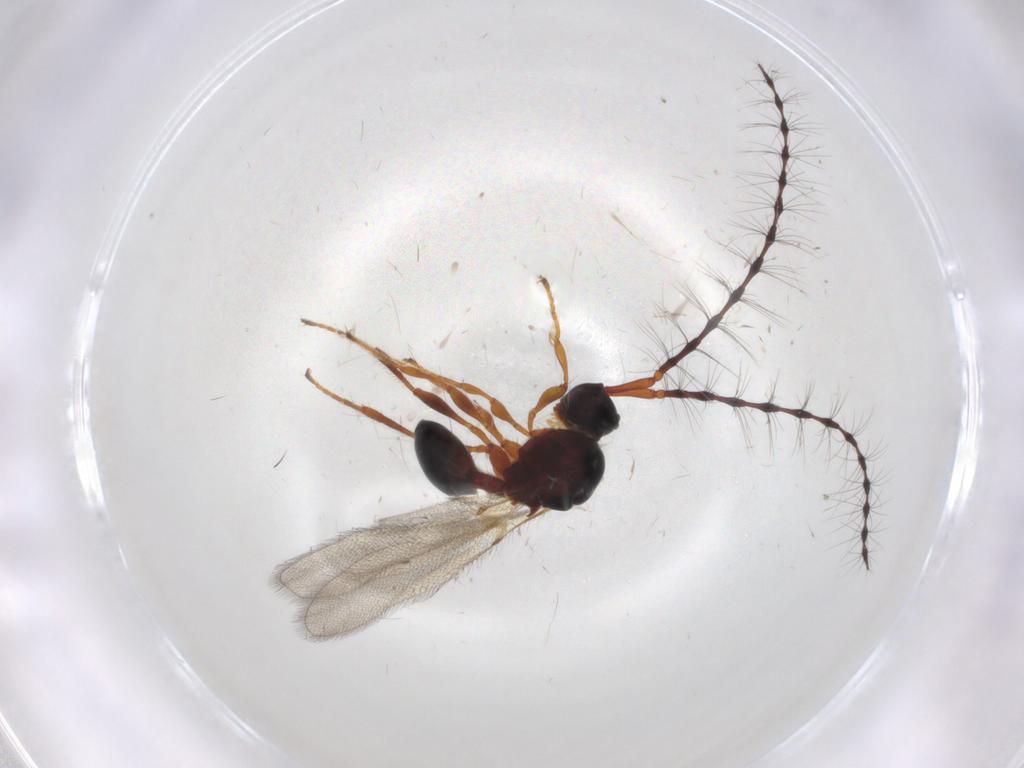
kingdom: Animalia
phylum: Arthropoda
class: Insecta
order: Hymenoptera
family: Diapriidae
